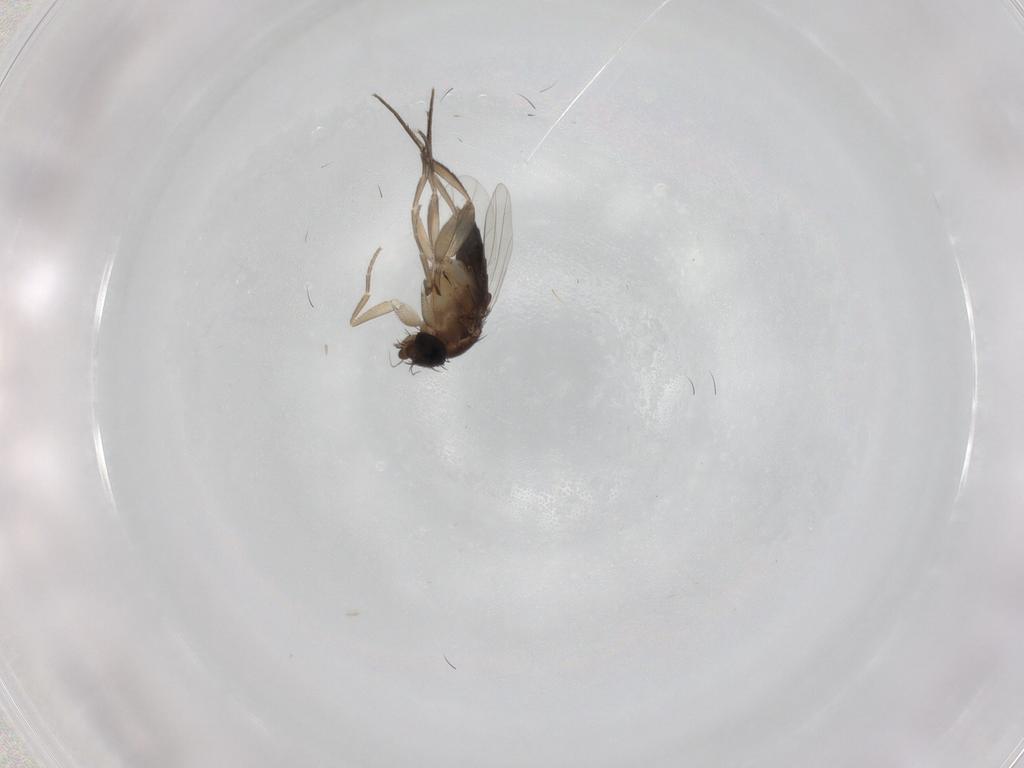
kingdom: Animalia
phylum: Arthropoda
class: Insecta
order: Diptera
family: Phoridae
